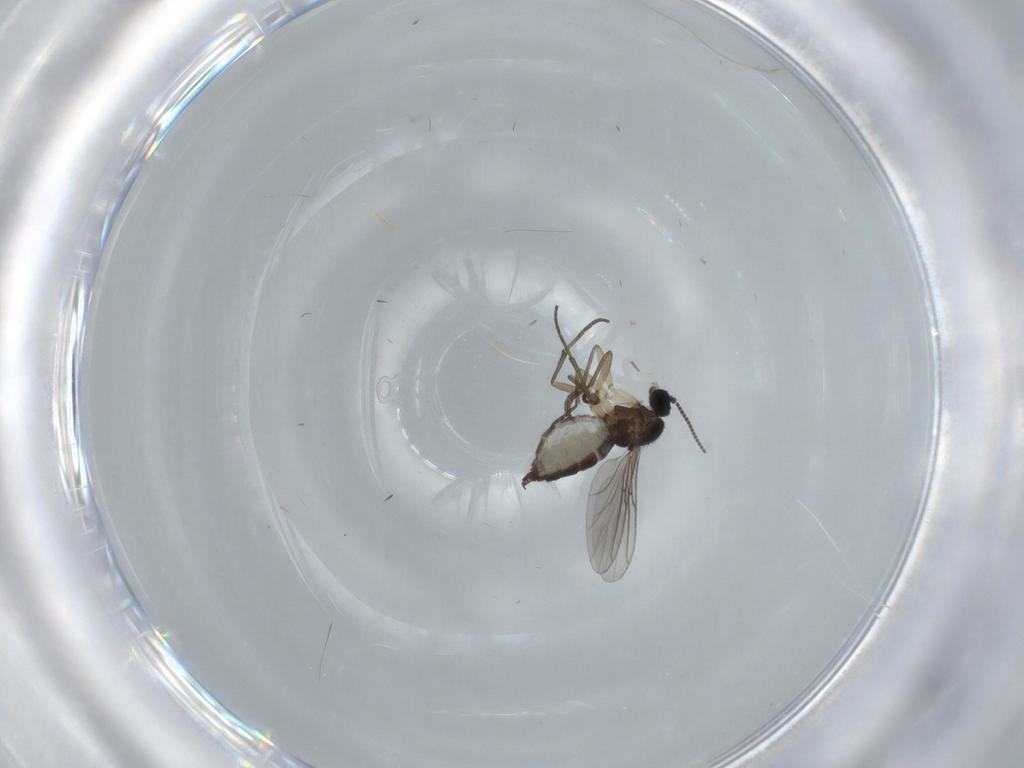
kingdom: Animalia
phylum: Arthropoda
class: Insecta
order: Diptera
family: Sciaridae
